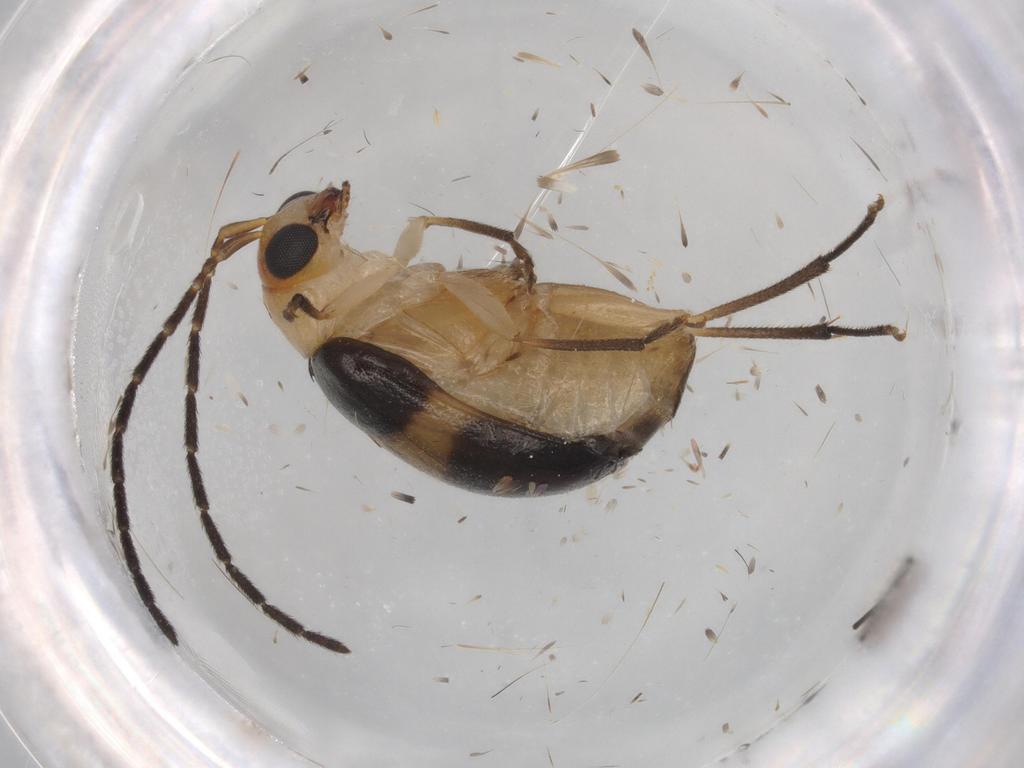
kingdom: Animalia
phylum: Arthropoda
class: Insecta
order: Coleoptera
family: Chrysomelidae
